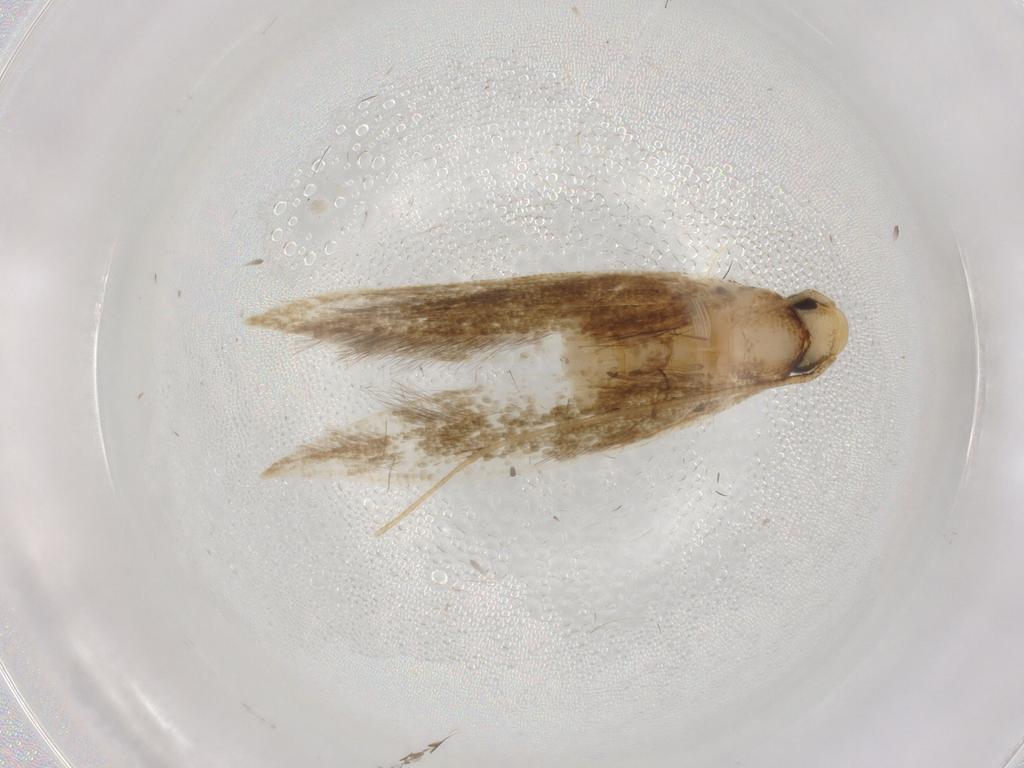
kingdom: Animalia
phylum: Arthropoda
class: Insecta
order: Lepidoptera
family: Tineidae
